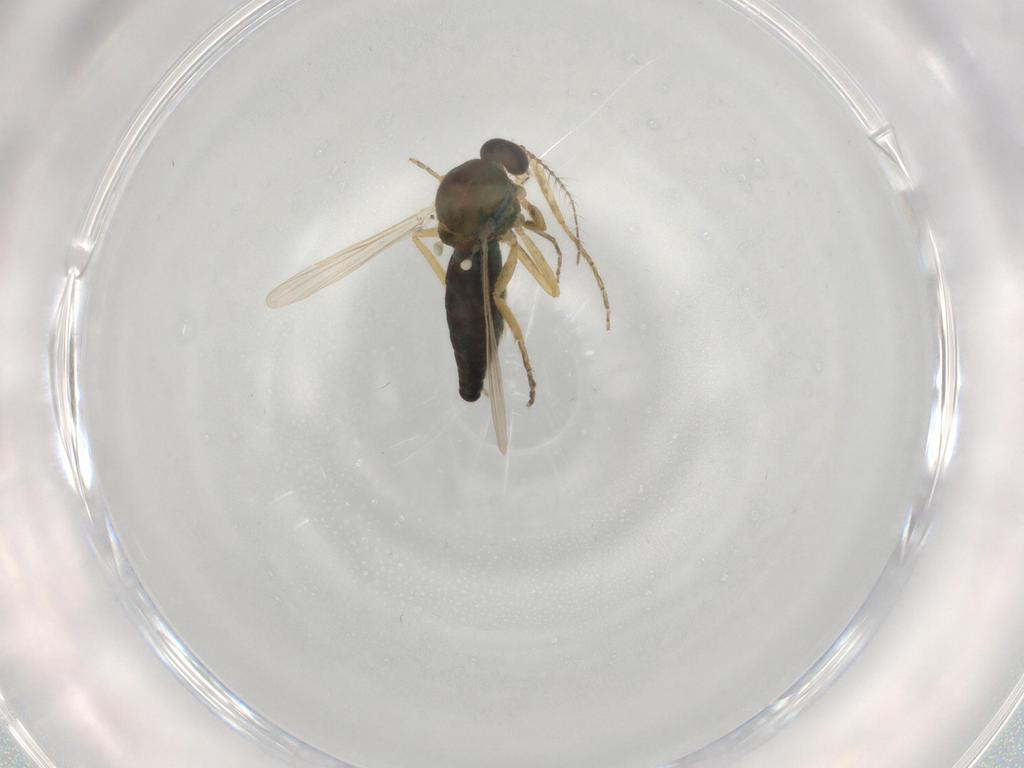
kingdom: Animalia
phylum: Arthropoda
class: Insecta
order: Diptera
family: Ceratopogonidae
